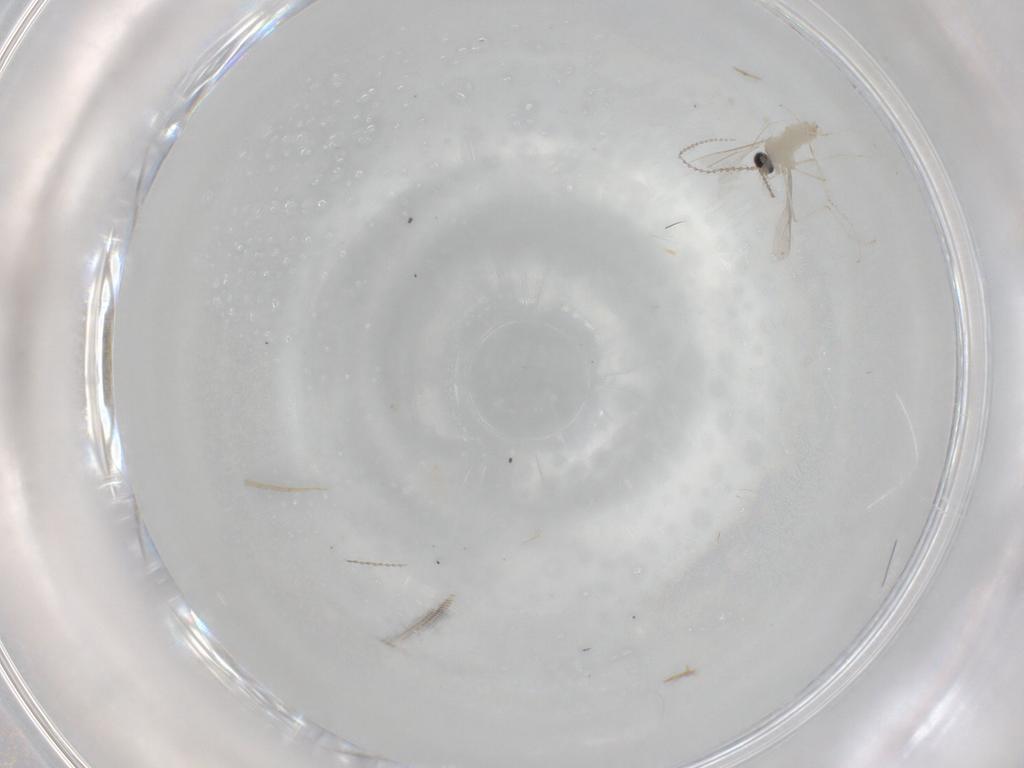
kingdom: Animalia
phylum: Arthropoda
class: Insecta
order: Diptera
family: Cecidomyiidae
